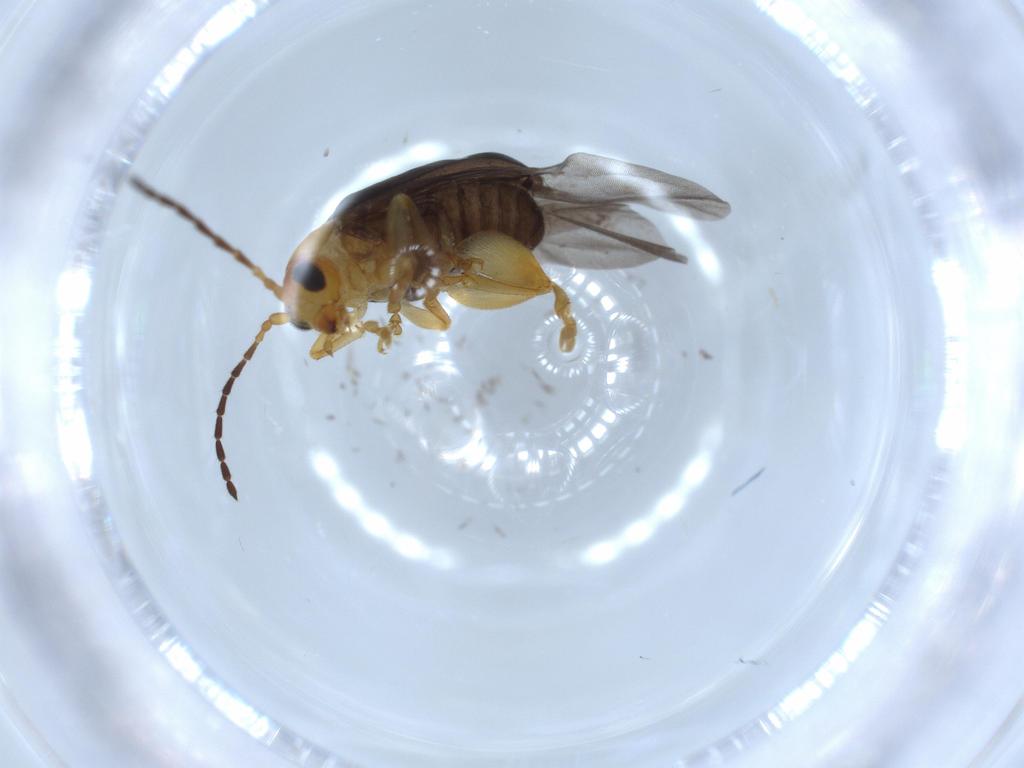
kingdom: Animalia
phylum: Arthropoda
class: Insecta
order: Coleoptera
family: Chrysomelidae
